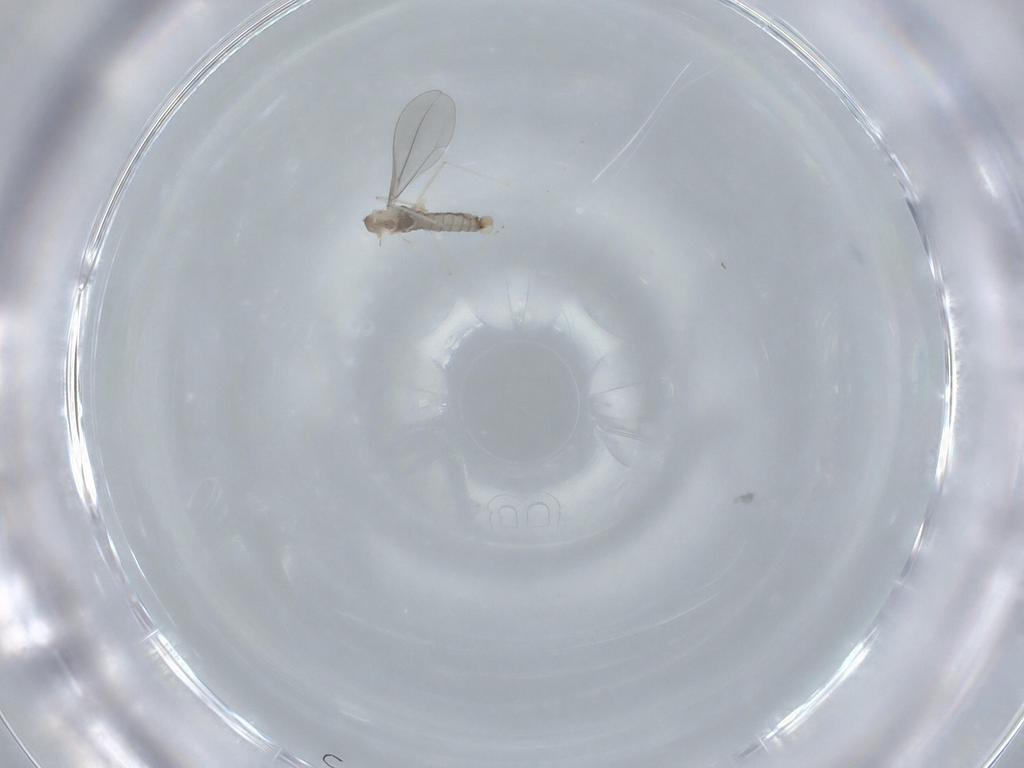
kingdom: Animalia
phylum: Arthropoda
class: Insecta
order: Diptera
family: Cecidomyiidae
